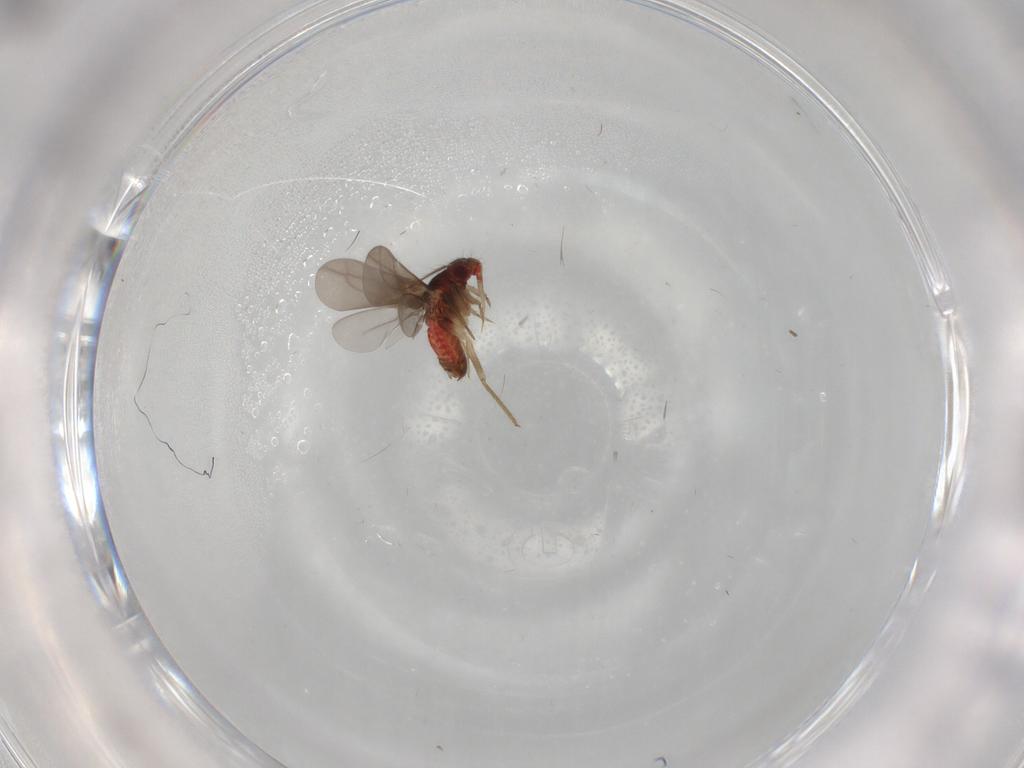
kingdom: Animalia
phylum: Arthropoda
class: Insecta
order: Hemiptera
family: Ceratocombidae
